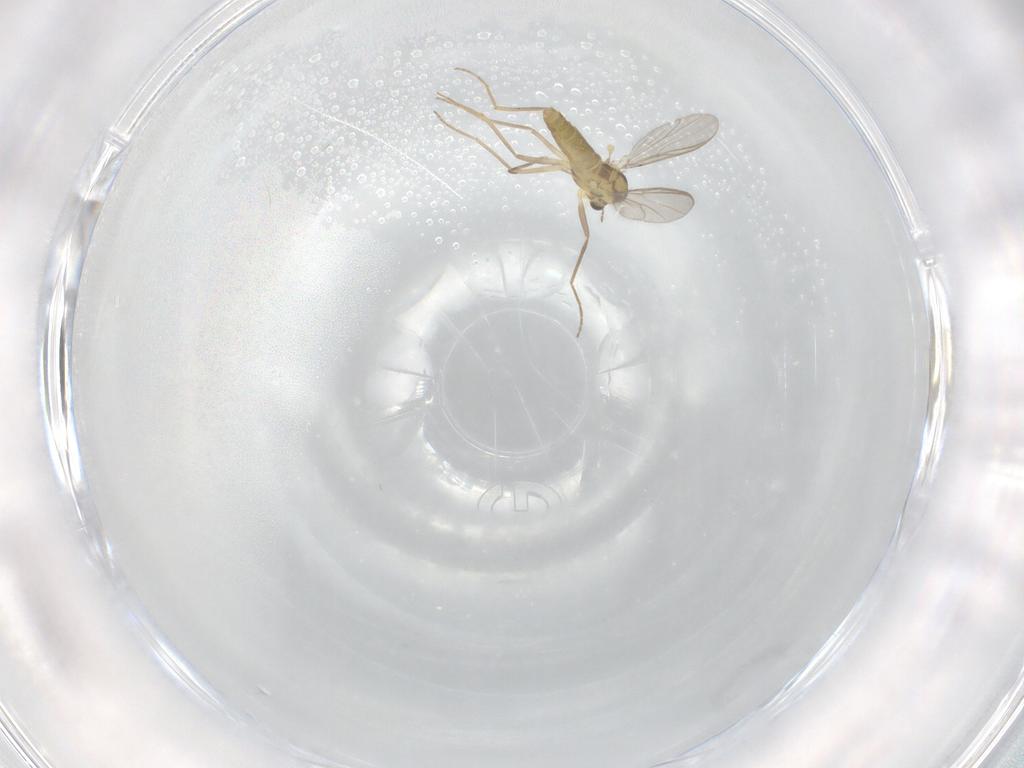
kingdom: Animalia
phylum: Arthropoda
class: Insecta
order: Diptera
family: Chironomidae
